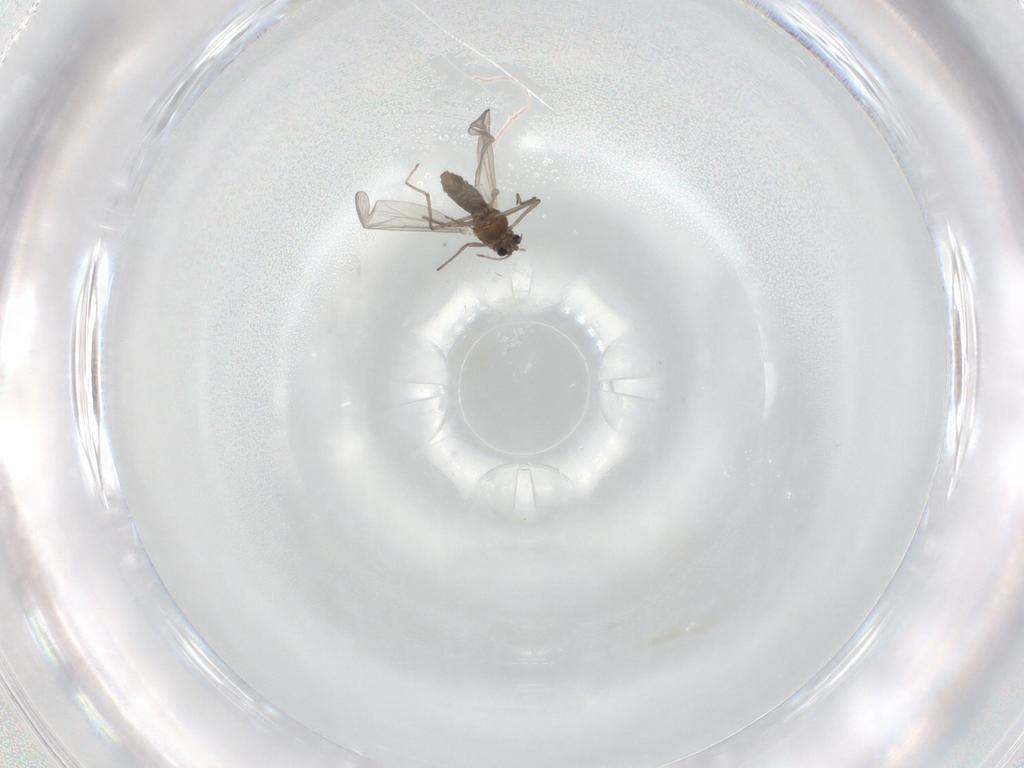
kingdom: Animalia
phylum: Arthropoda
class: Insecta
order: Diptera
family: Chironomidae
